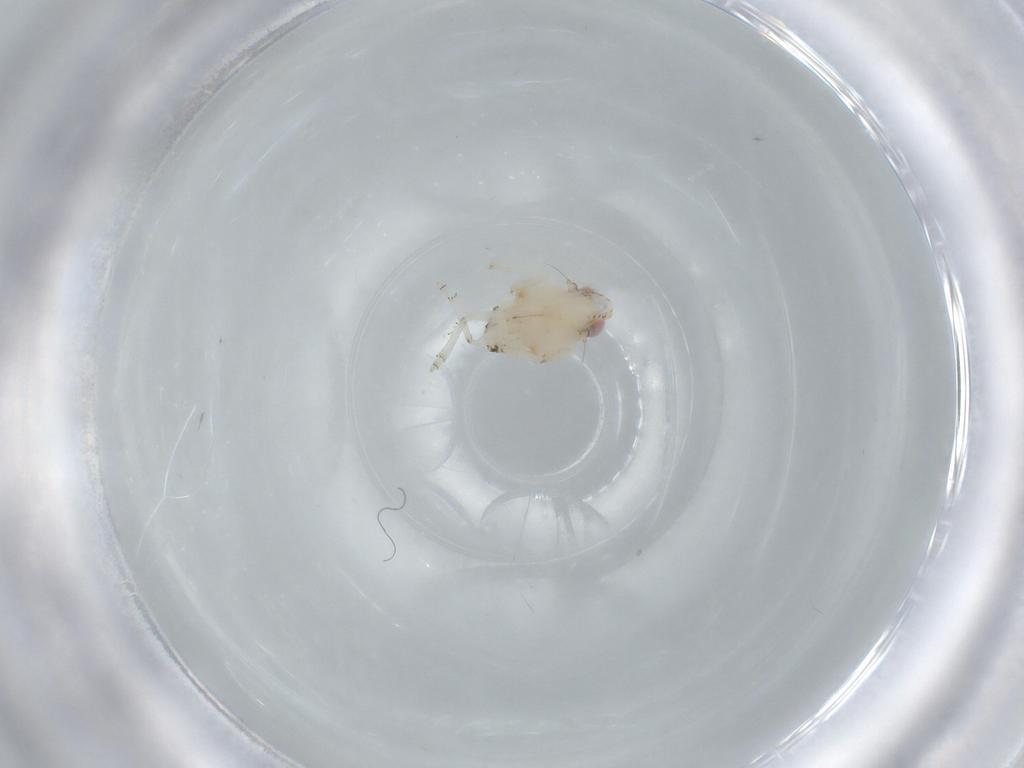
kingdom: Animalia
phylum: Arthropoda
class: Insecta
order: Hemiptera
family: Nogodinidae
